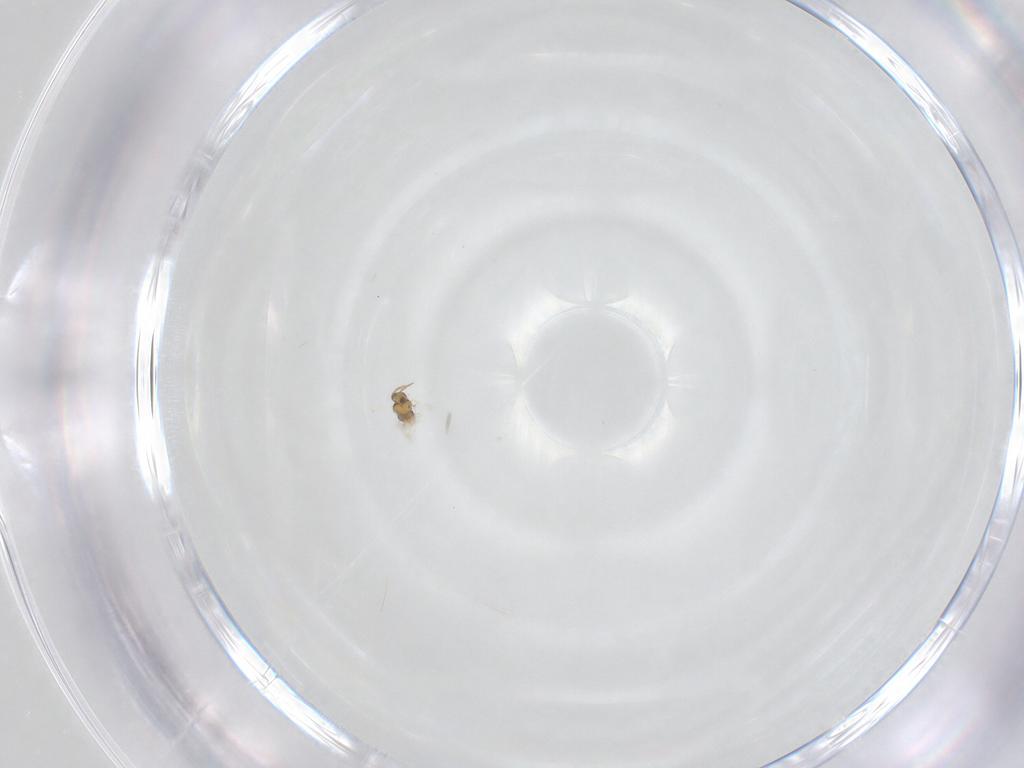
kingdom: Animalia
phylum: Arthropoda
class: Insecta
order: Hymenoptera
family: Aphelinidae
